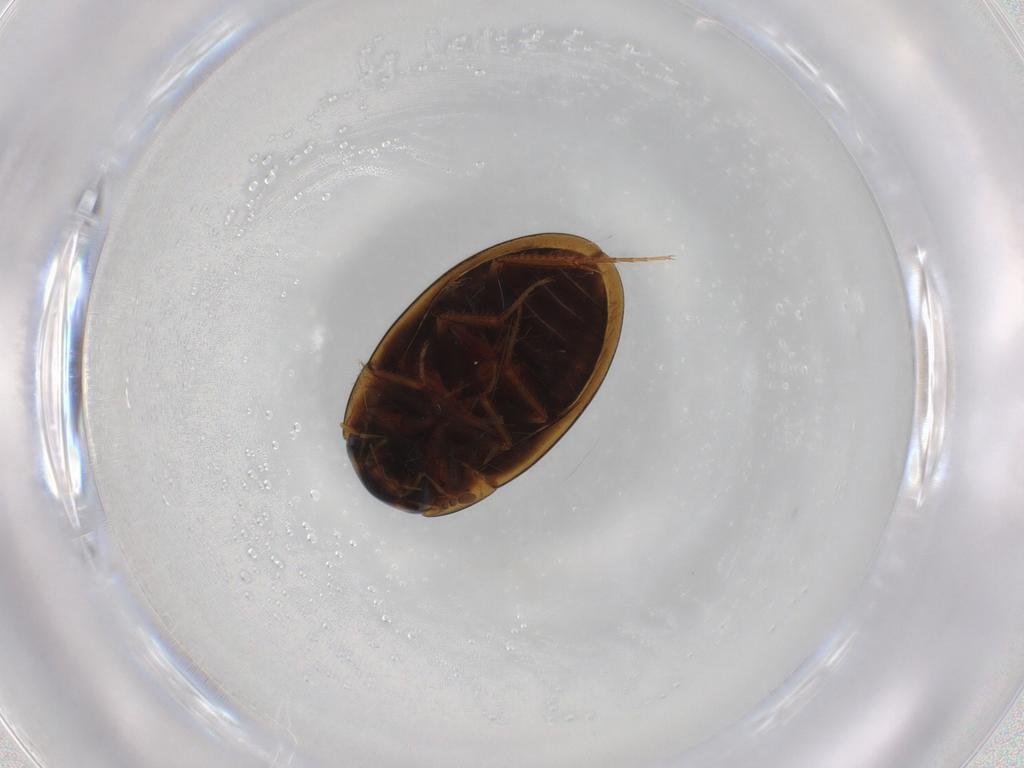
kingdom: Animalia
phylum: Arthropoda
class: Insecta
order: Coleoptera
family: Hydrophilidae
